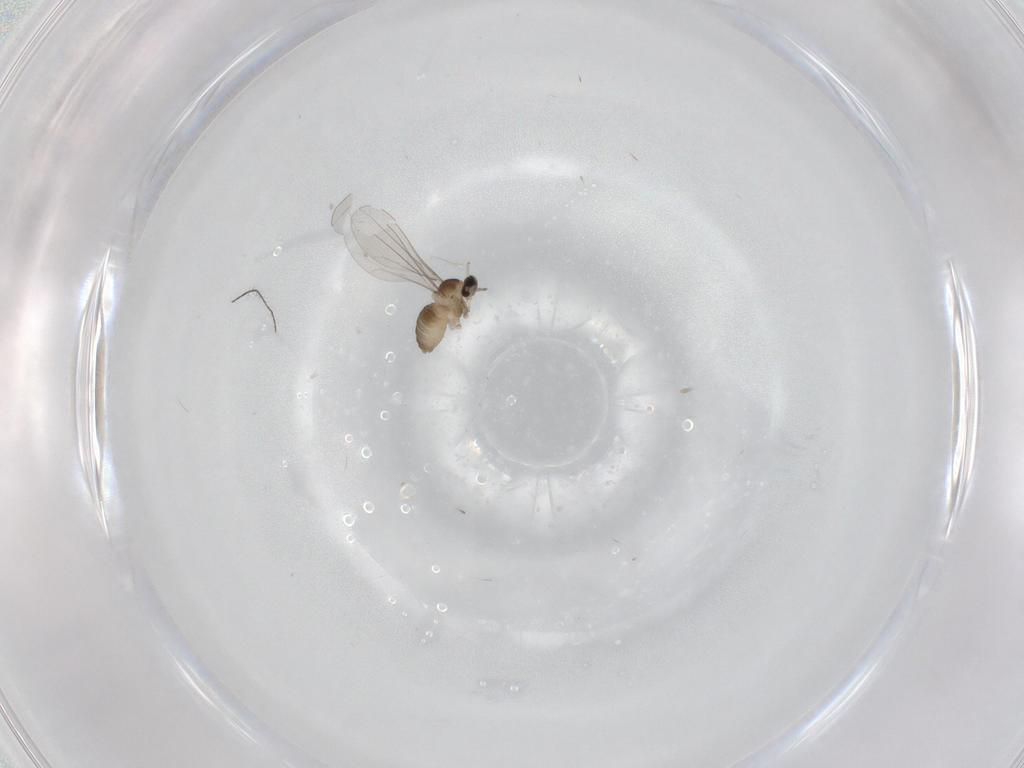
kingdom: Animalia
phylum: Arthropoda
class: Insecta
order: Diptera
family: Cecidomyiidae
